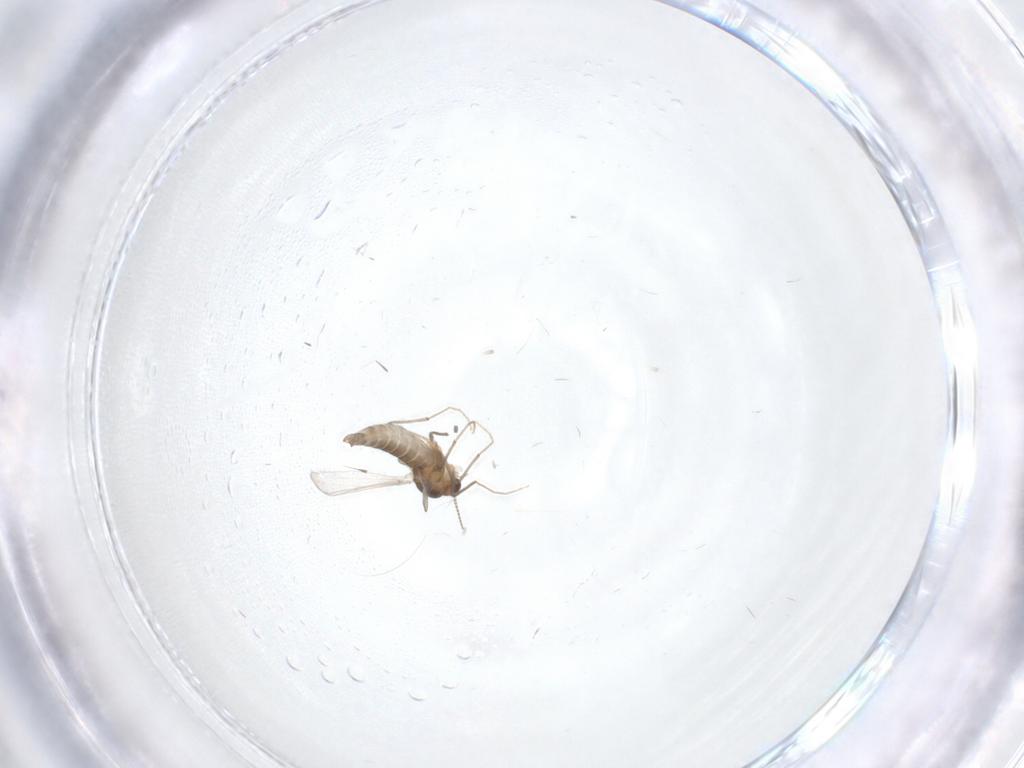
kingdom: Animalia
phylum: Arthropoda
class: Insecta
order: Diptera
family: Chironomidae
